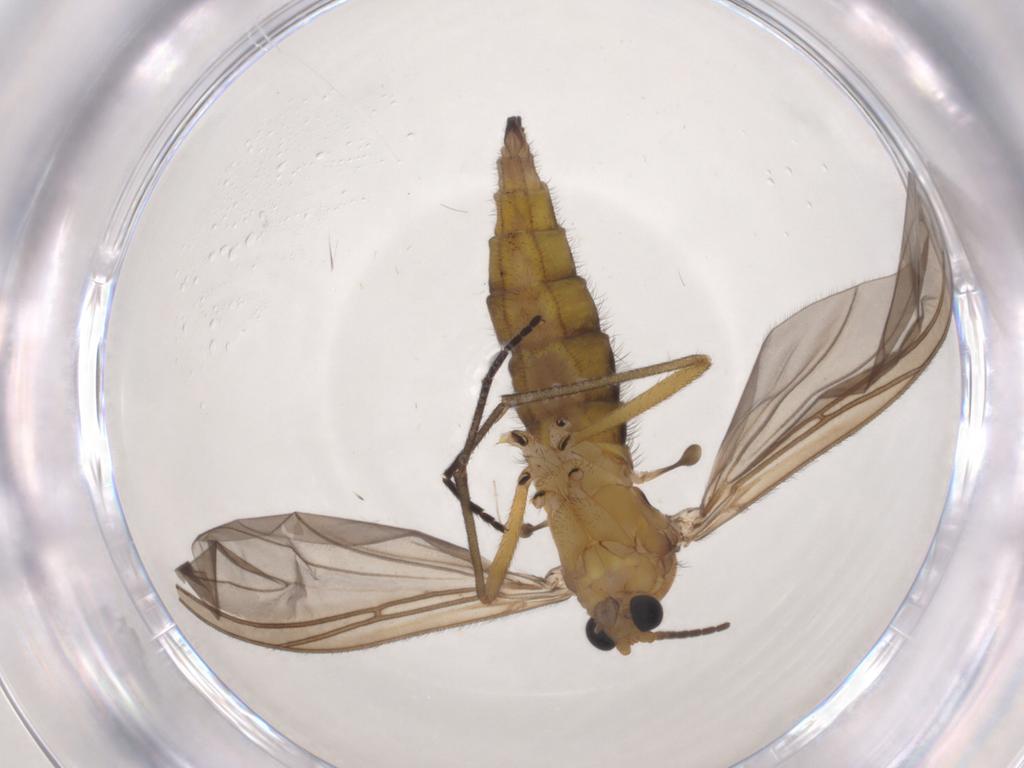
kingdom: Animalia
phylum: Arthropoda
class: Insecta
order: Diptera
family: Sciaridae
